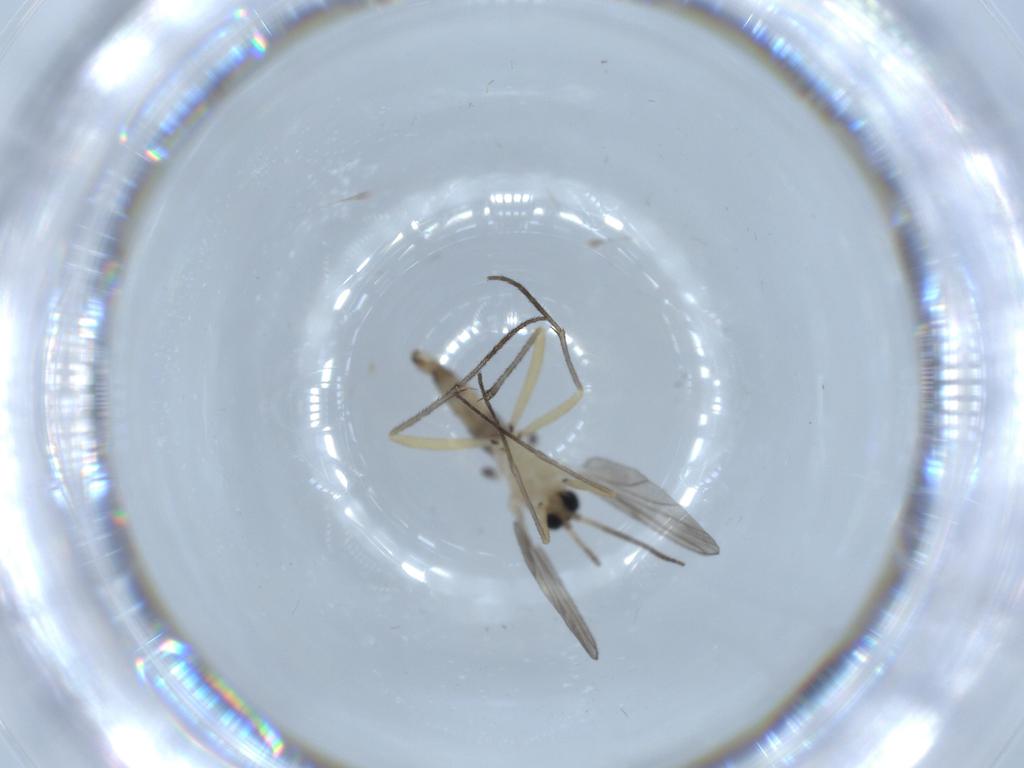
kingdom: Animalia
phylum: Arthropoda
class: Insecta
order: Diptera
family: Sciaridae
